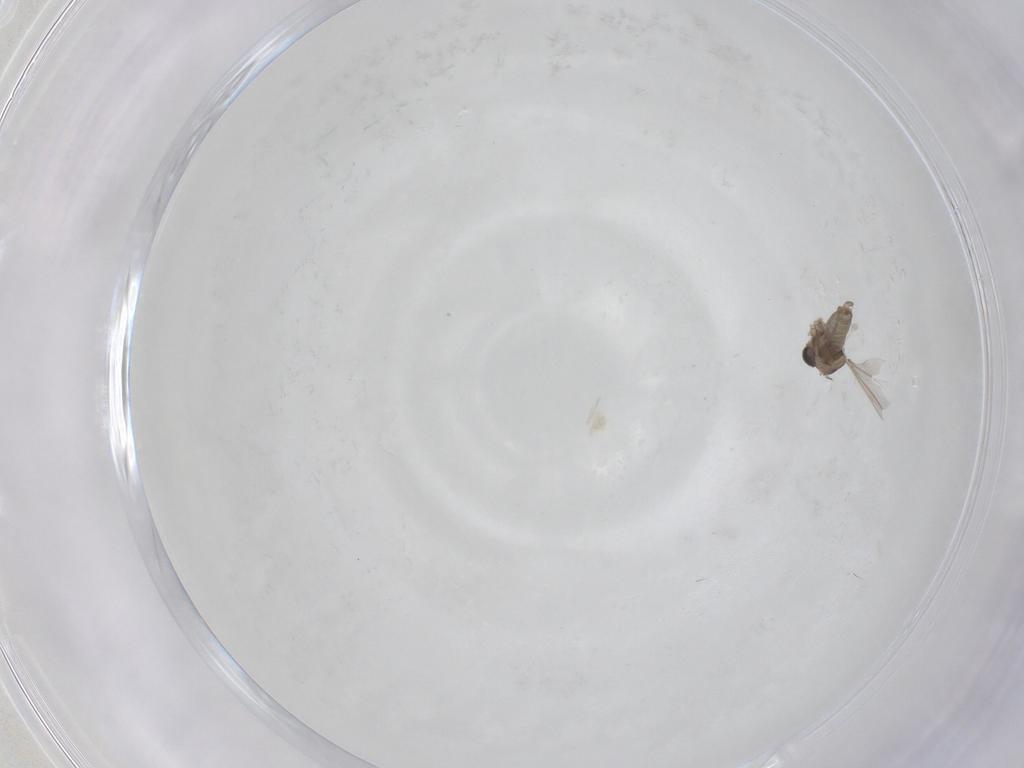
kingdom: Animalia
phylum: Arthropoda
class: Insecta
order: Diptera
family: Cecidomyiidae
